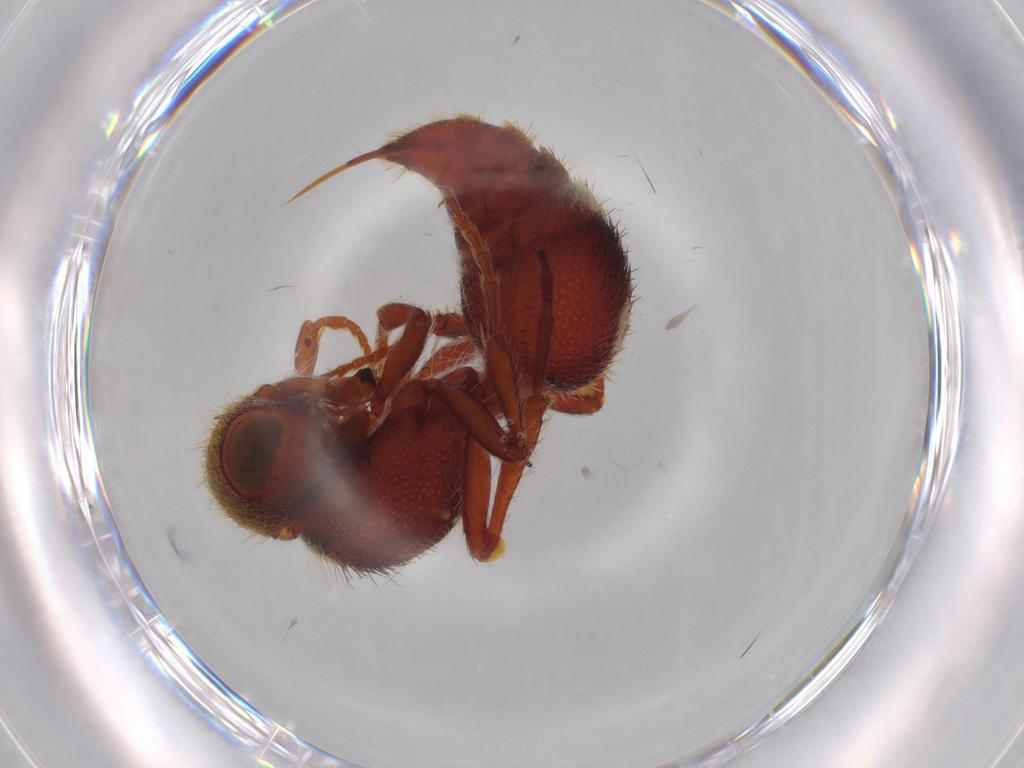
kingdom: Animalia
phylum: Arthropoda
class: Insecta
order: Hymenoptera
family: Mutillidae
